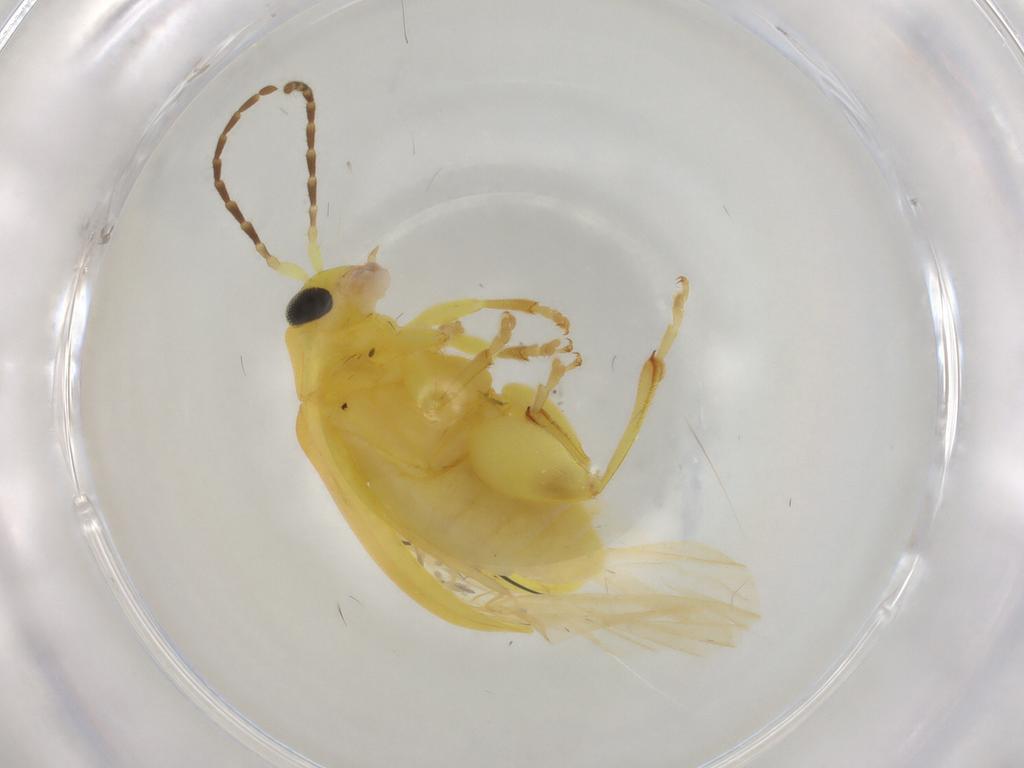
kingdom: Animalia
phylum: Arthropoda
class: Insecta
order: Coleoptera
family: Chrysomelidae
